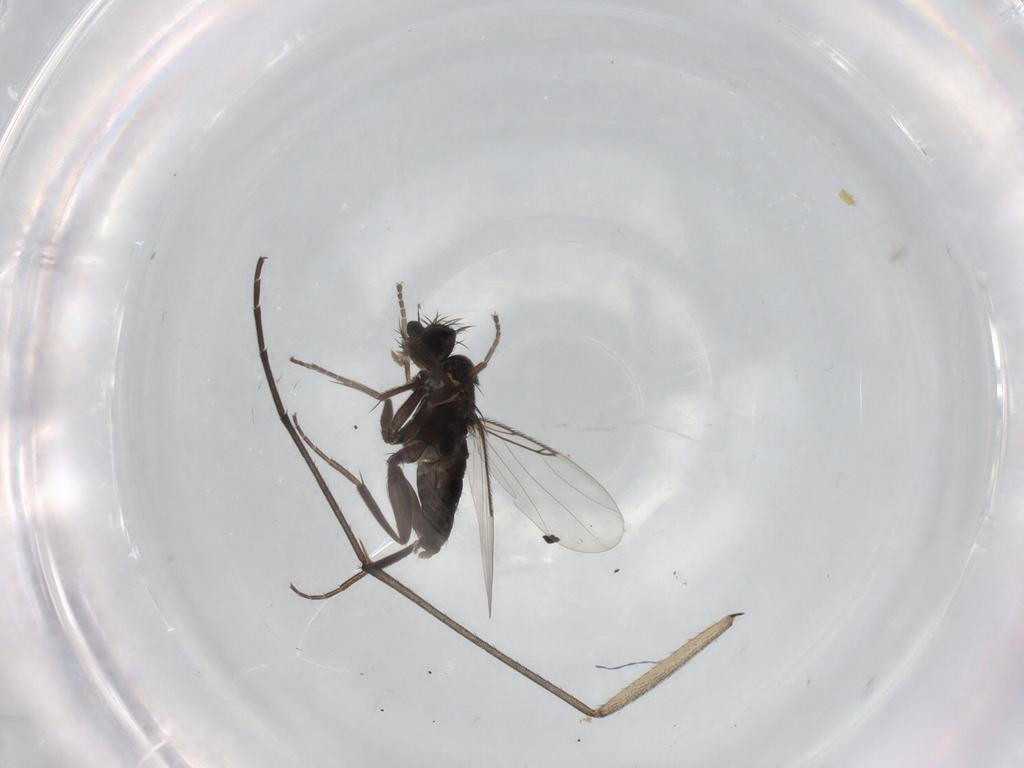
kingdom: Animalia
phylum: Arthropoda
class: Insecta
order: Diptera
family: Phoridae
